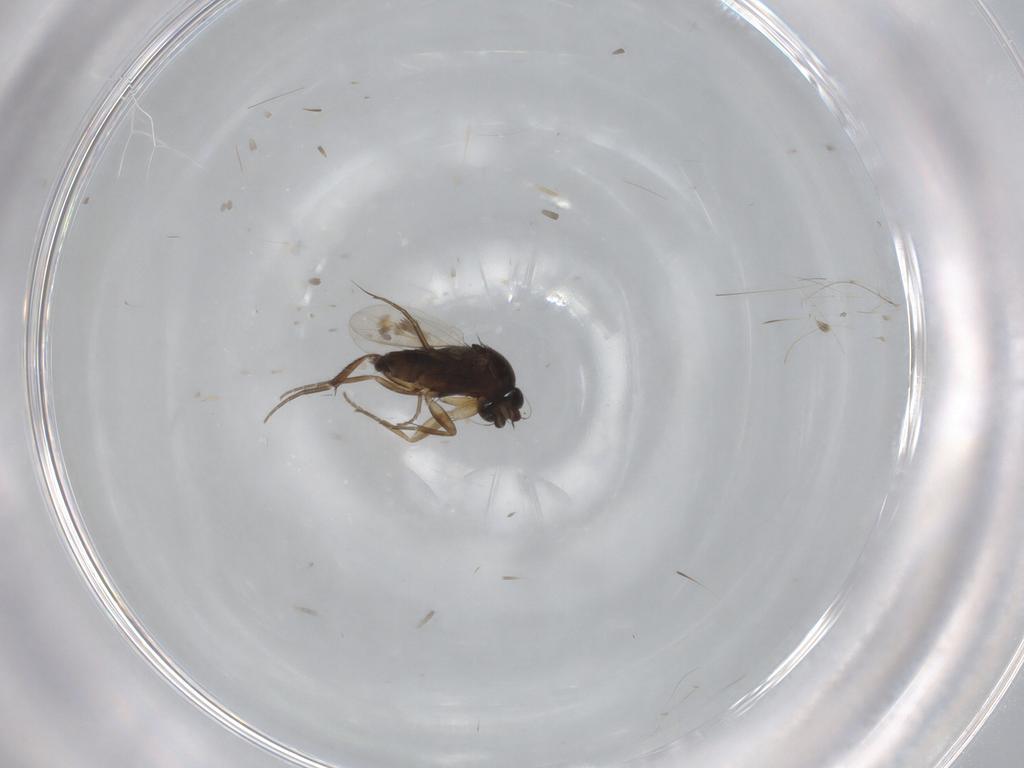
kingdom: Animalia
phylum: Arthropoda
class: Insecta
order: Diptera
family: Phoridae
